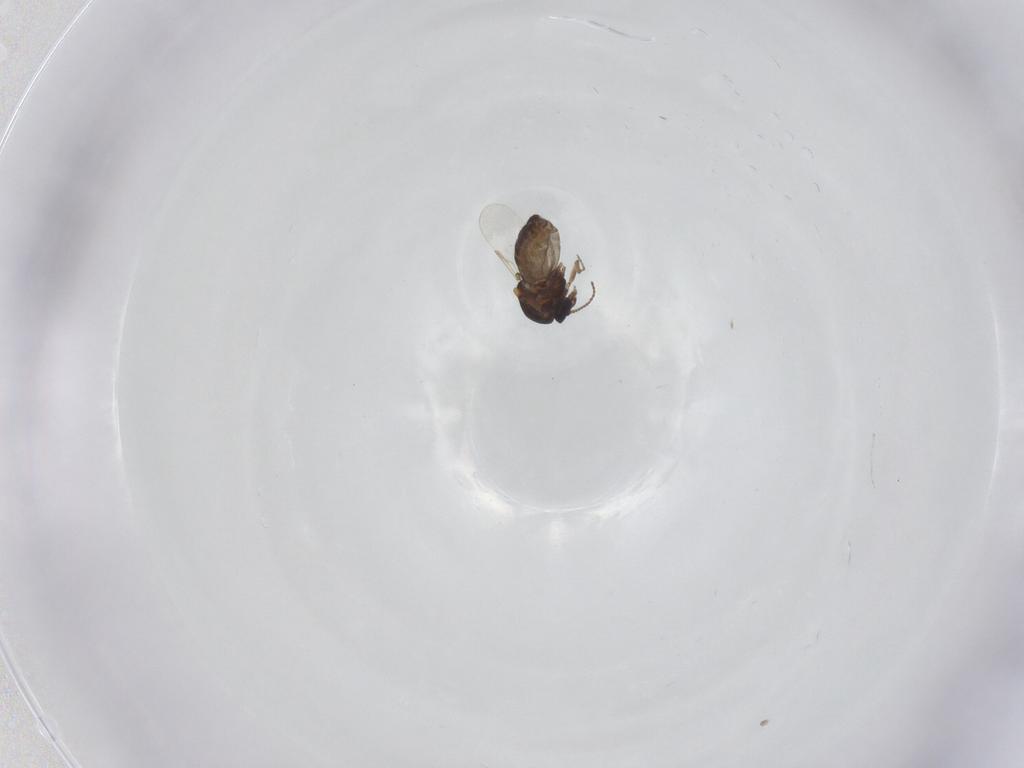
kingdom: Animalia
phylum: Arthropoda
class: Insecta
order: Diptera
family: Ceratopogonidae
